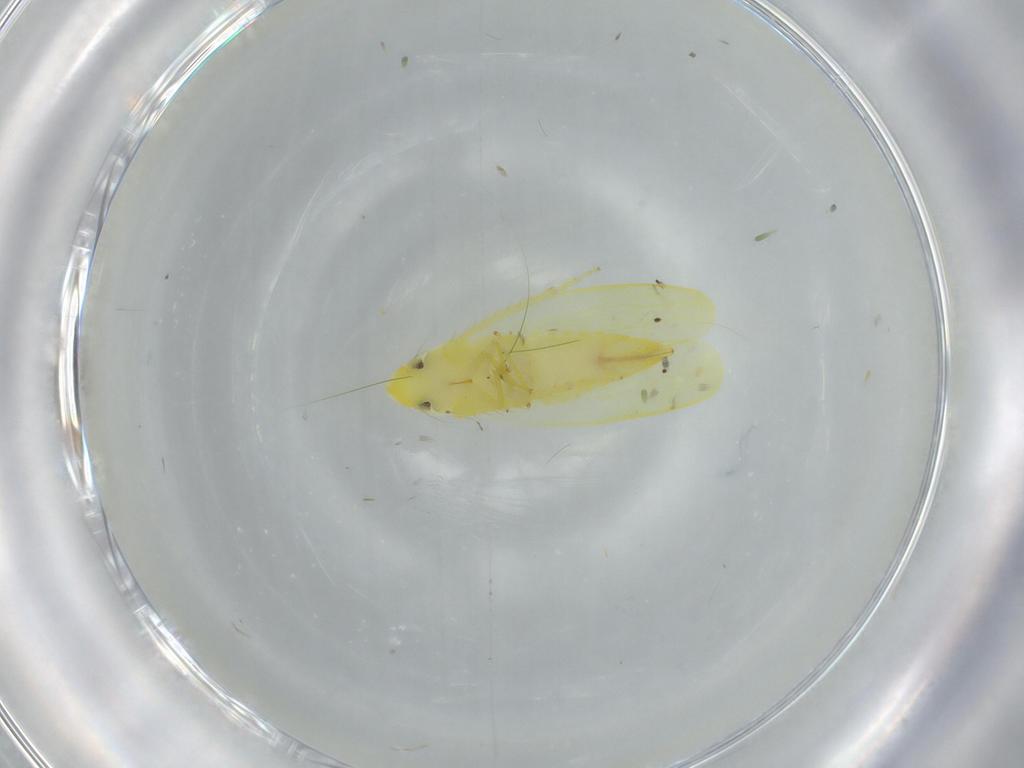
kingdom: Animalia
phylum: Arthropoda
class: Insecta
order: Hemiptera
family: Cicadellidae
